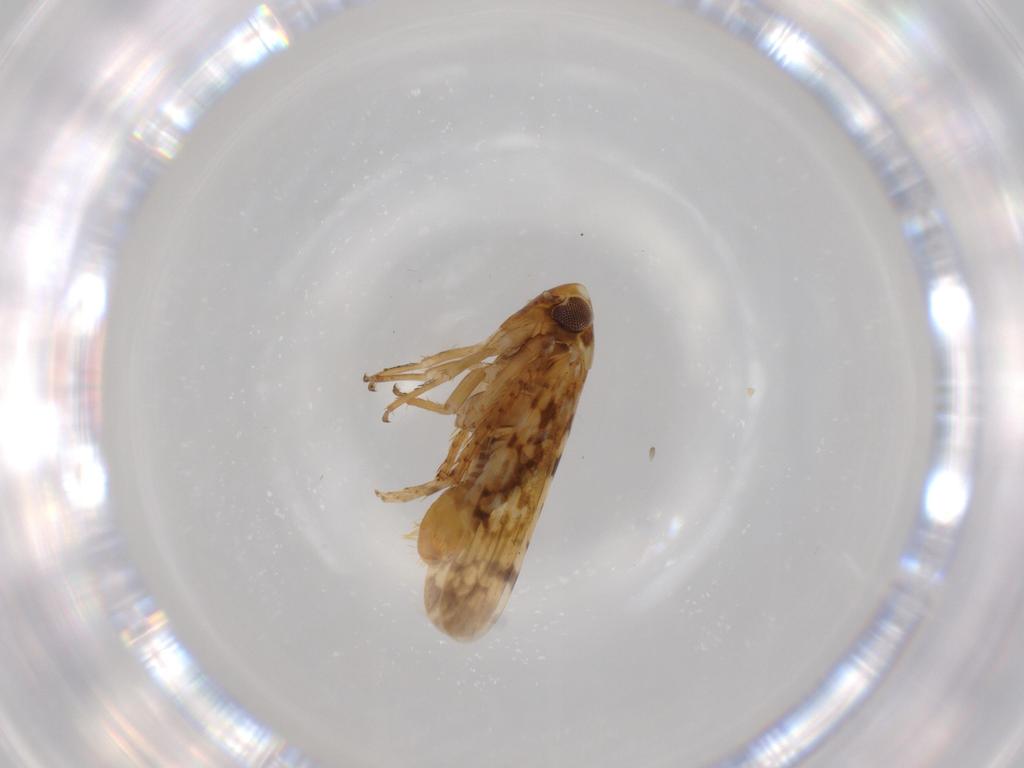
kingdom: Animalia
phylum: Arthropoda
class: Insecta
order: Hemiptera
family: Cicadellidae
